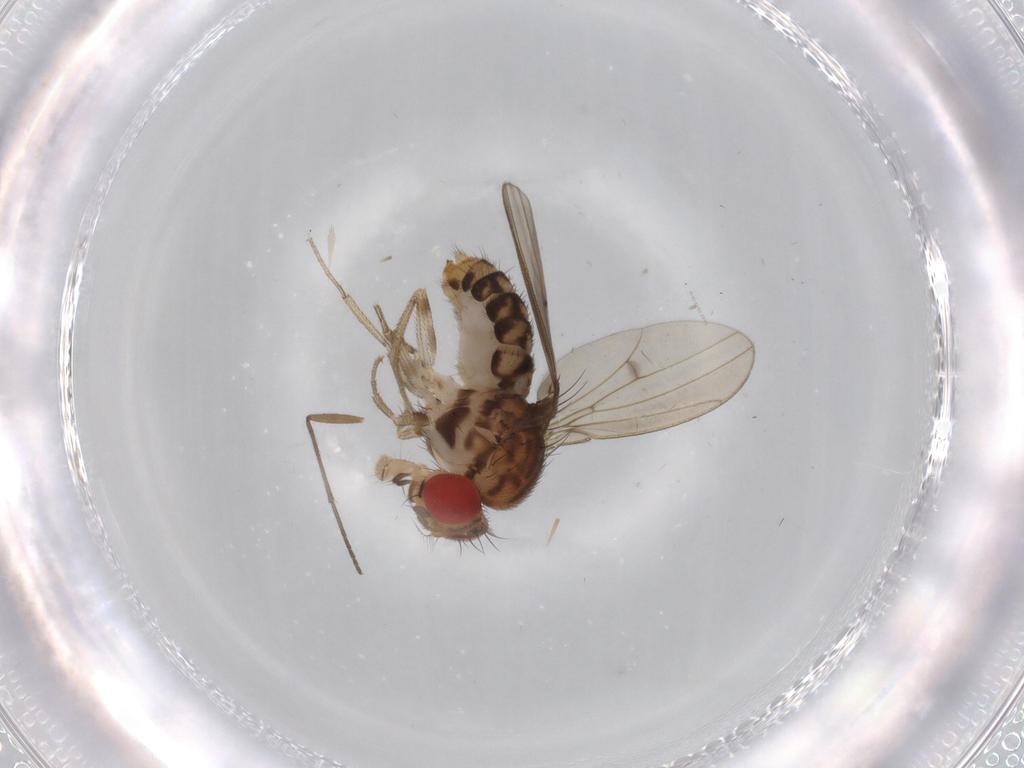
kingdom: Animalia
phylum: Arthropoda
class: Insecta
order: Diptera
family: Drosophilidae
